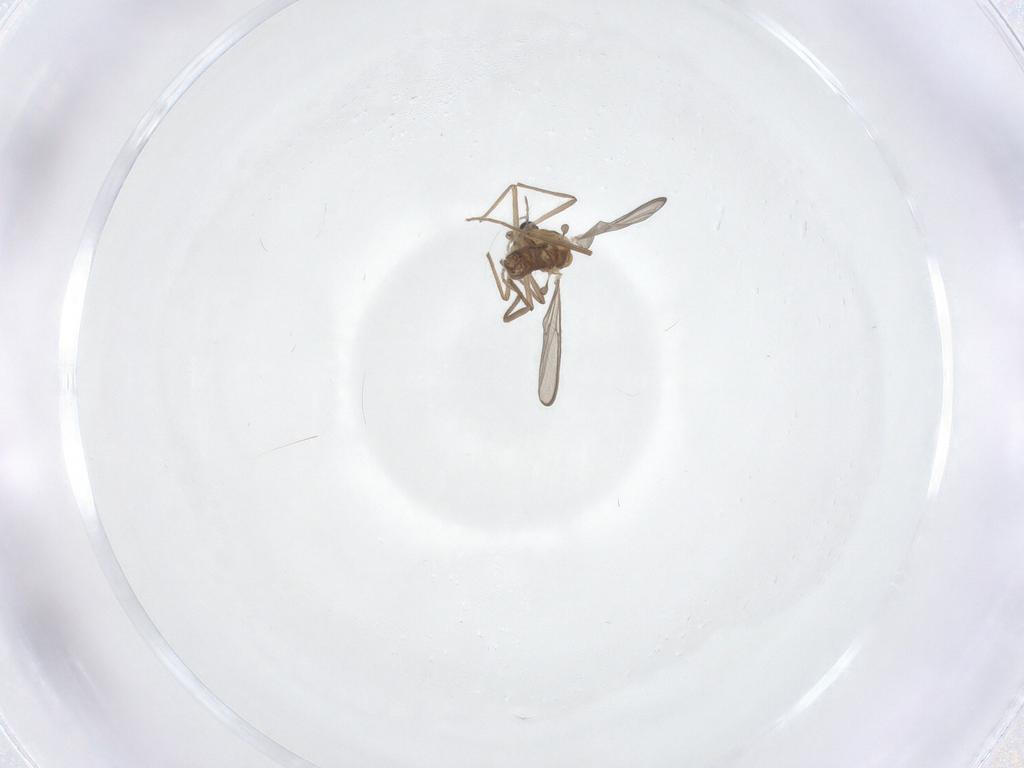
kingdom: Animalia
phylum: Arthropoda
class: Insecta
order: Diptera
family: Chironomidae
